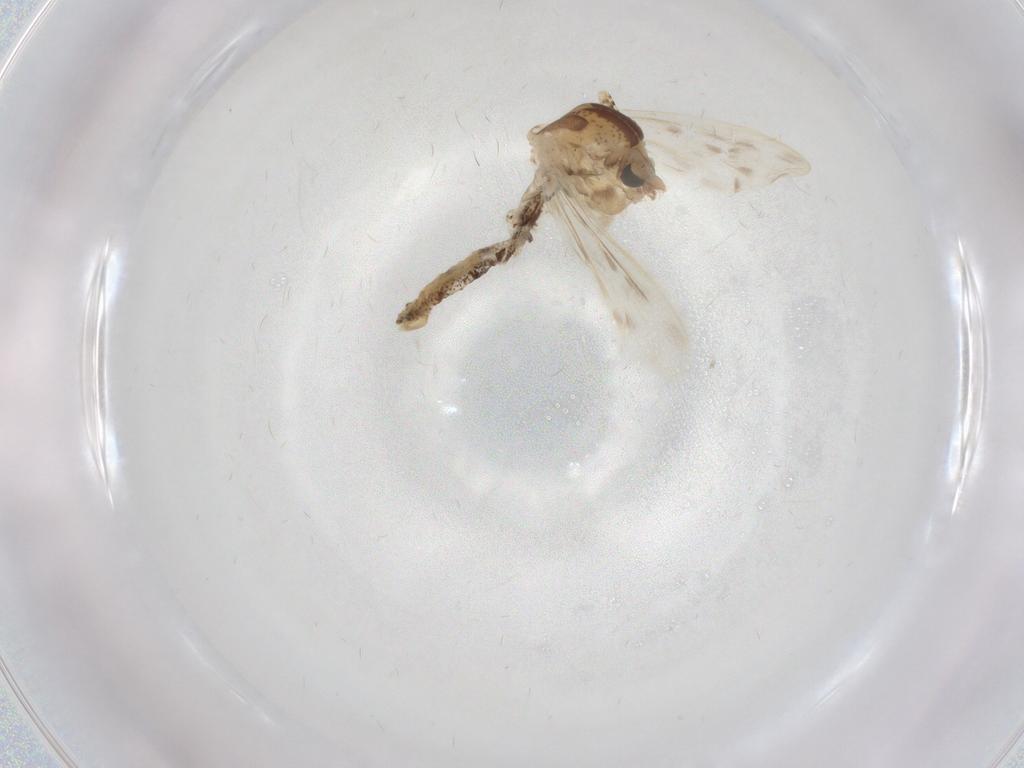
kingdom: Animalia
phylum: Arthropoda
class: Insecta
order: Diptera
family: Chaoboridae
